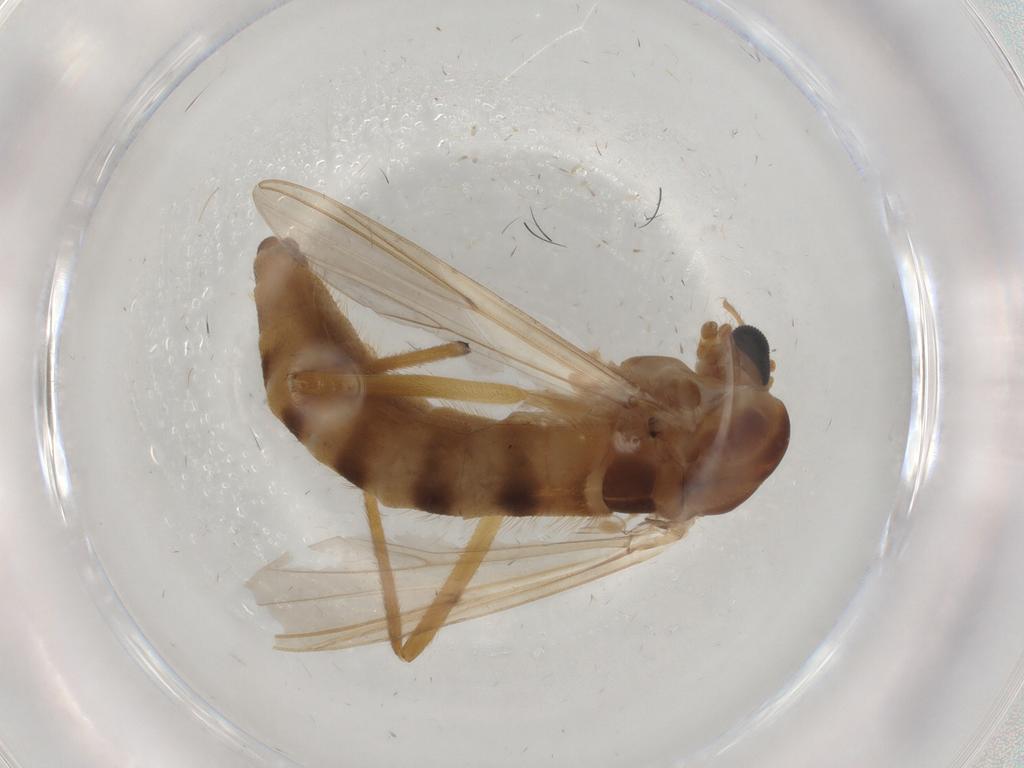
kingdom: Animalia
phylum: Arthropoda
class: Insecta
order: Diptera
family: Drosophilidae
